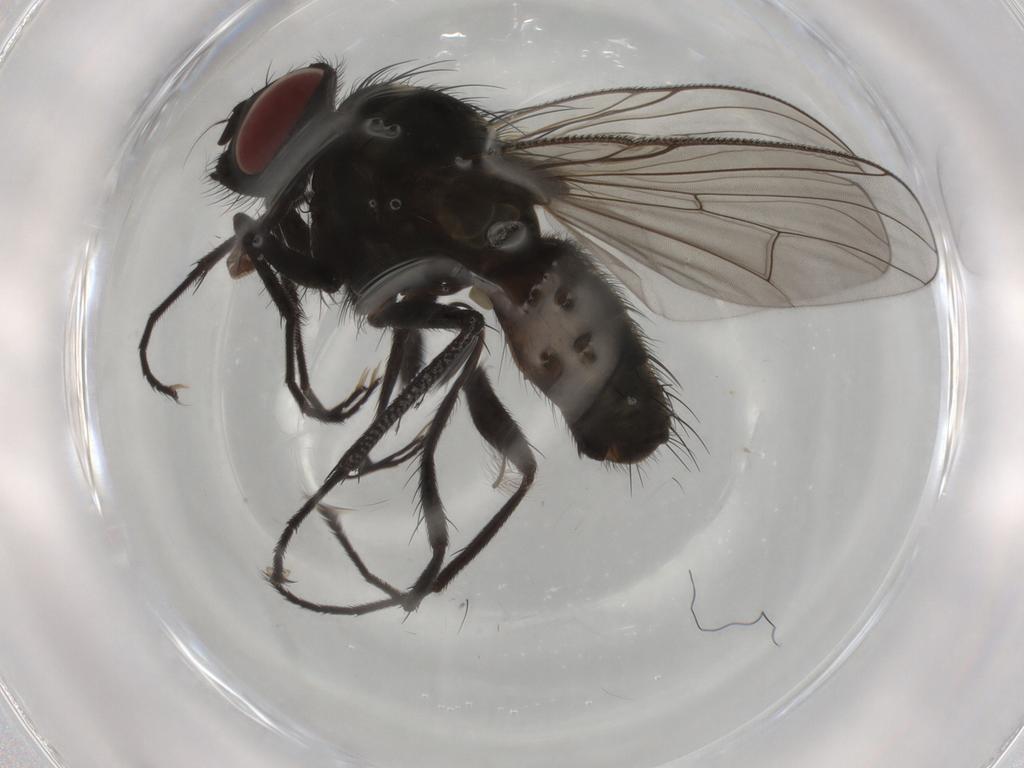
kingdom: Animalia
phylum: Arthropoda
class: Insecta
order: Diptera
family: Muscidae
